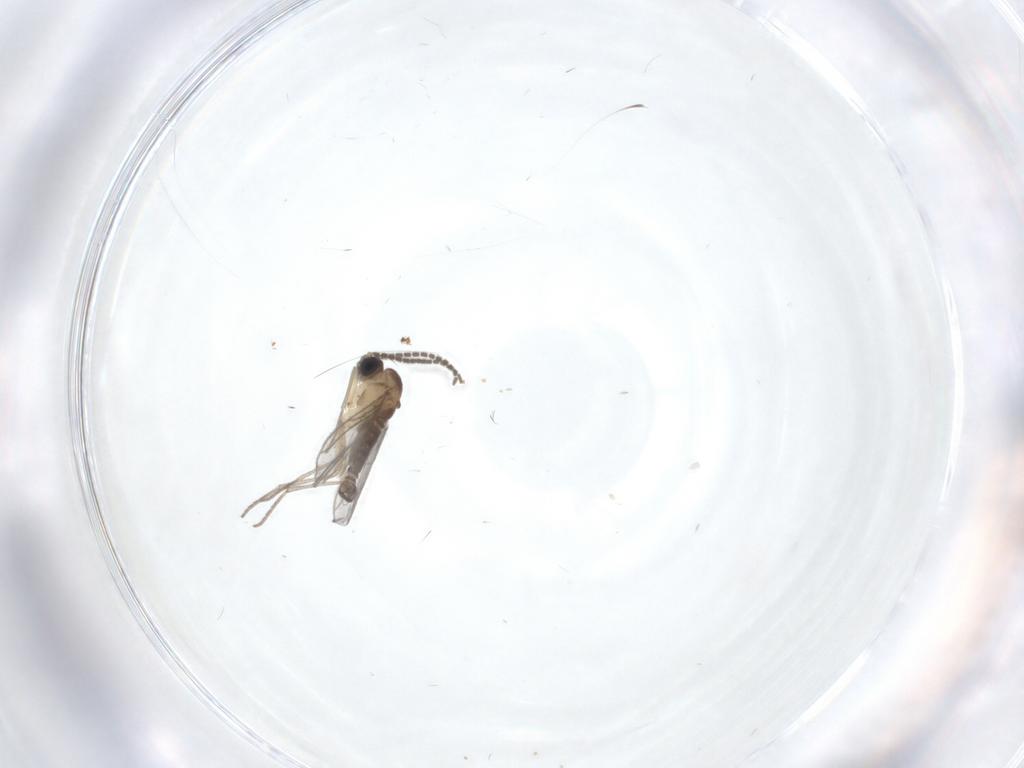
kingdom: Animalia
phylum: Arthropoda
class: Insecta
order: Diptera
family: Sciaridae
